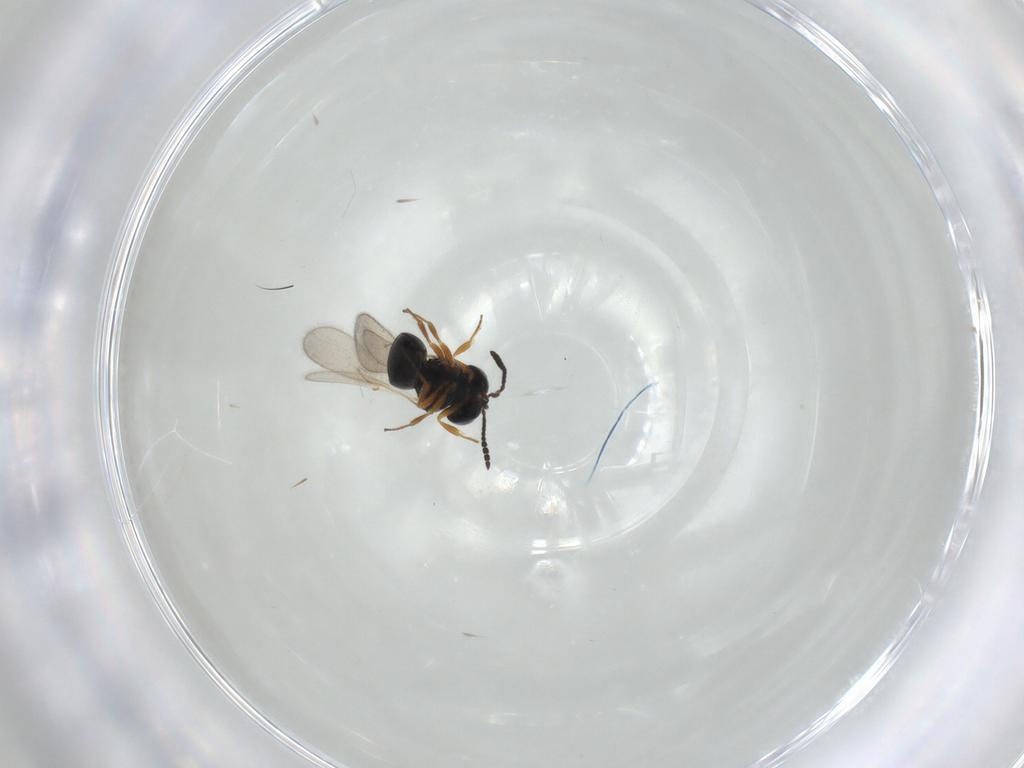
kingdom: Animalia
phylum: Arthropoda
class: Insecta
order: Hymenoptera
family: Scelionidae
